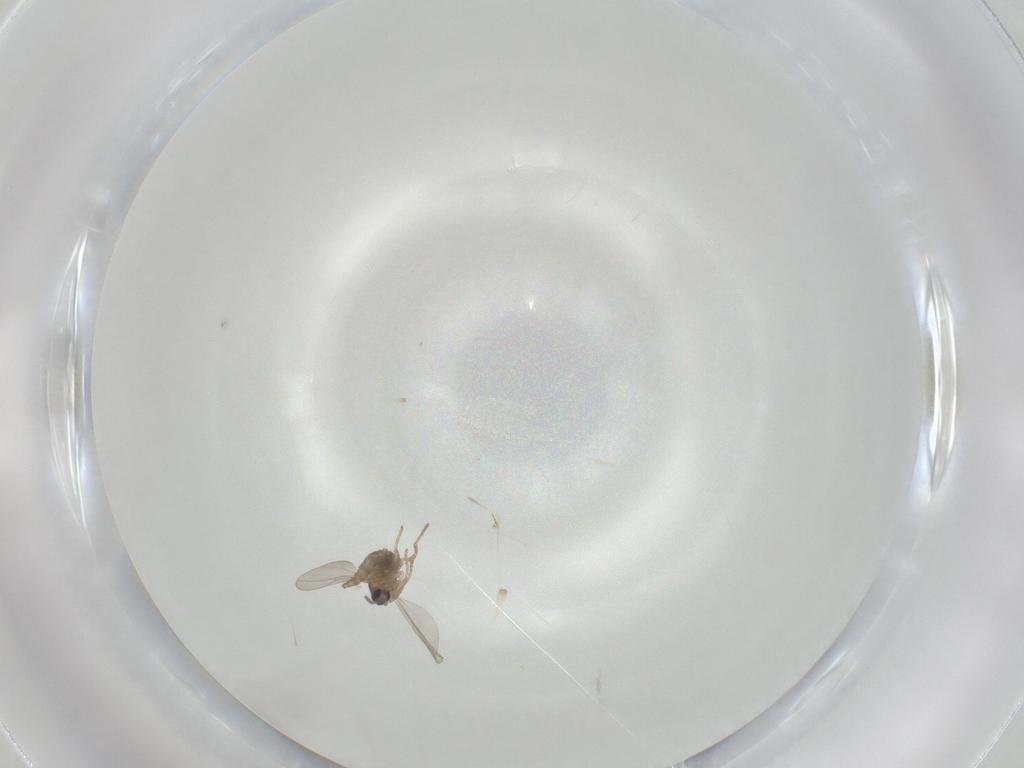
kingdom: Animalia
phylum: Arthropoda
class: Insecta
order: Diptera
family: Cecidomyiidae
